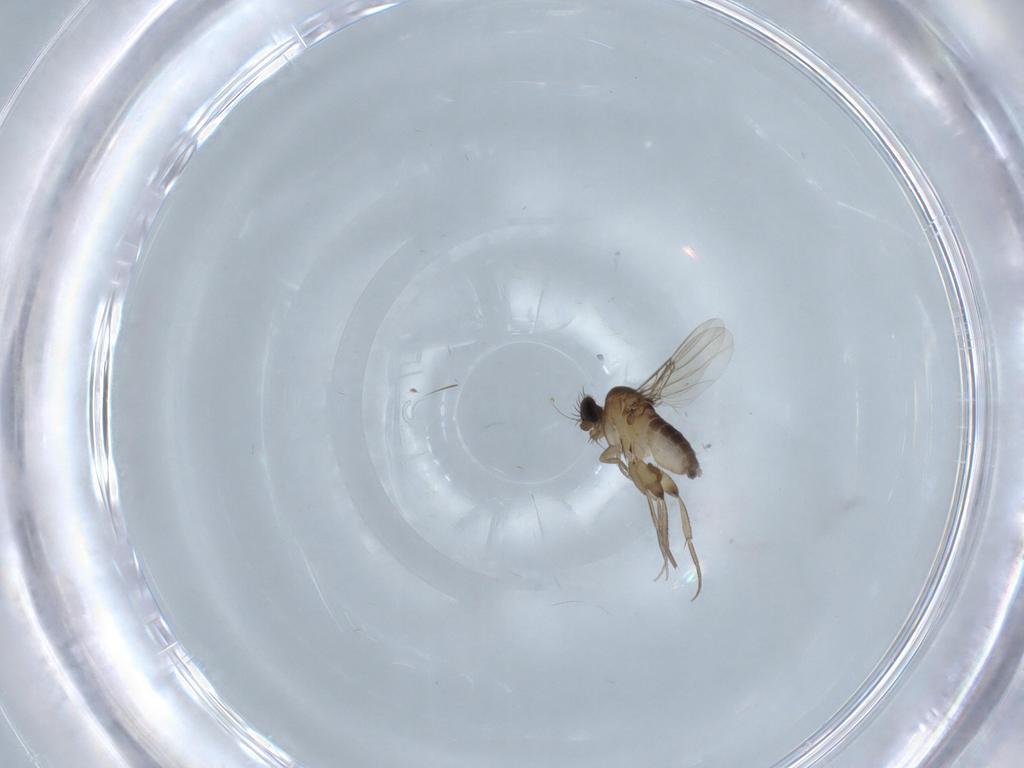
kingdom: Animalia
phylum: Arthropoda
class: Insecta
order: Diptera
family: Phoridae
